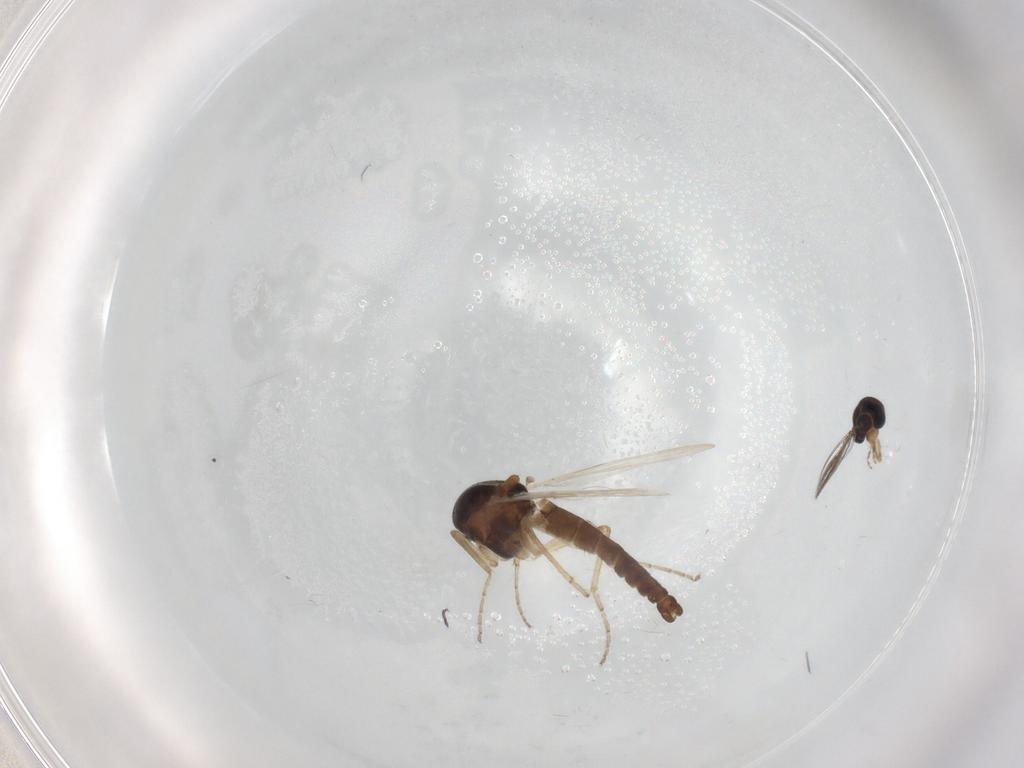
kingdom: Animalia
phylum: Arthropoda
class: Insecta
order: Diptera
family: Ceratopogonidae
